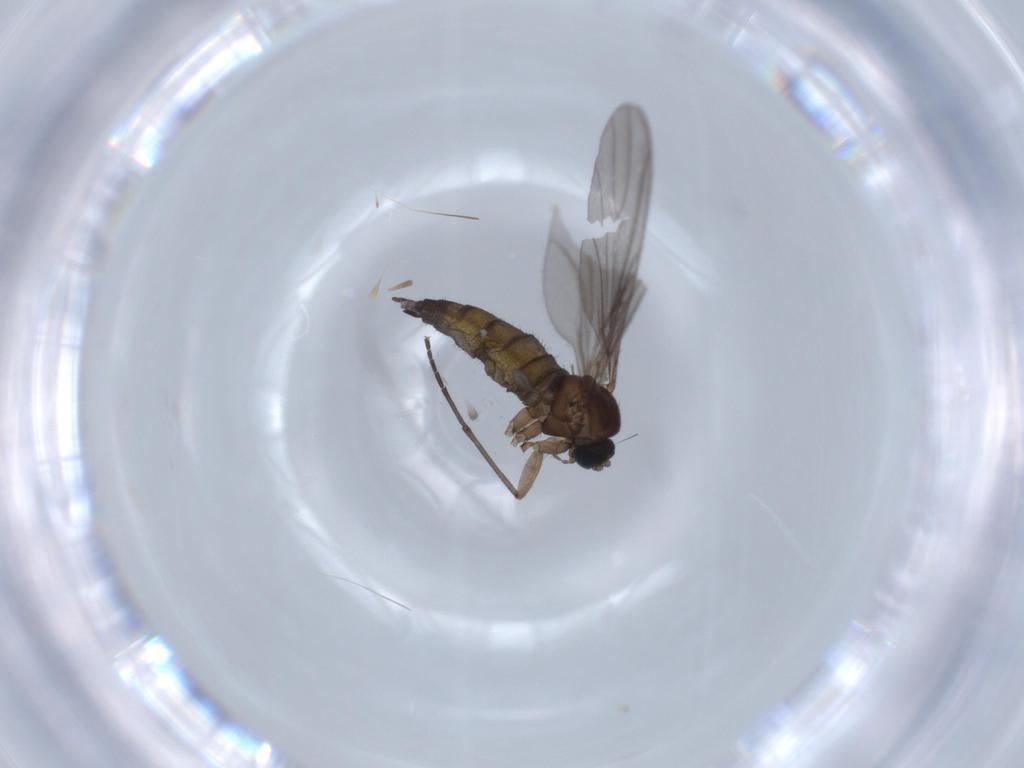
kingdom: Animalia
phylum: Arthropoda
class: Insecta
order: Diptera
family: Sciaridae
